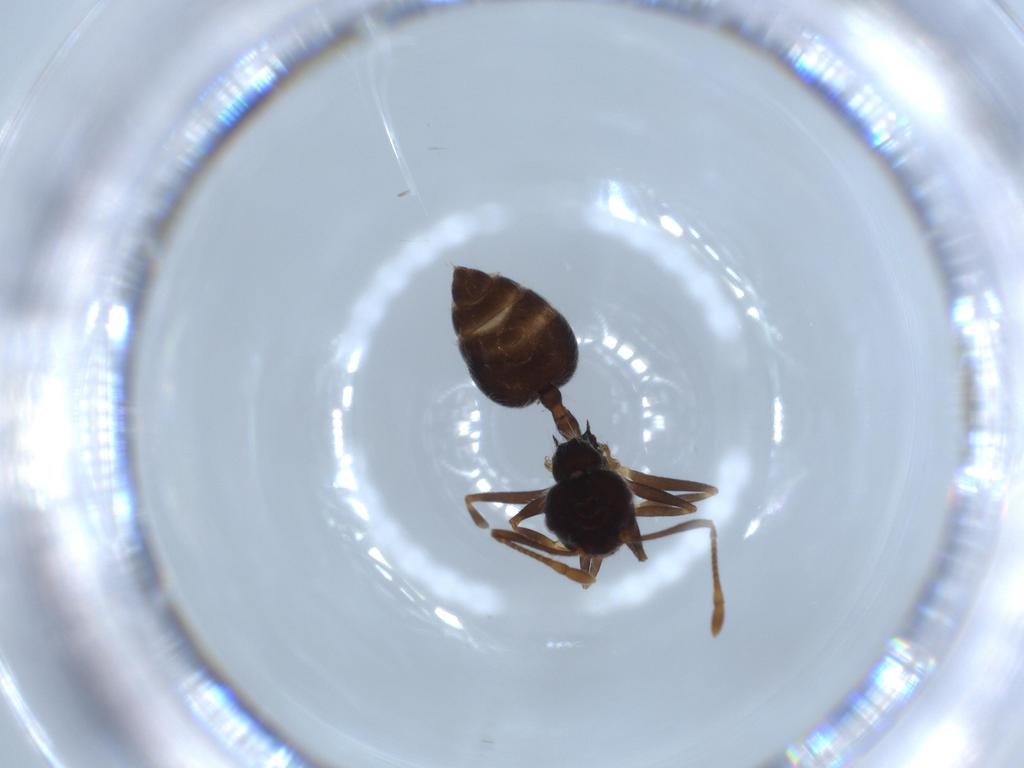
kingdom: Animalia
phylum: Arthropoda
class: Insecta
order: Hymenoptera
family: Formicidae
